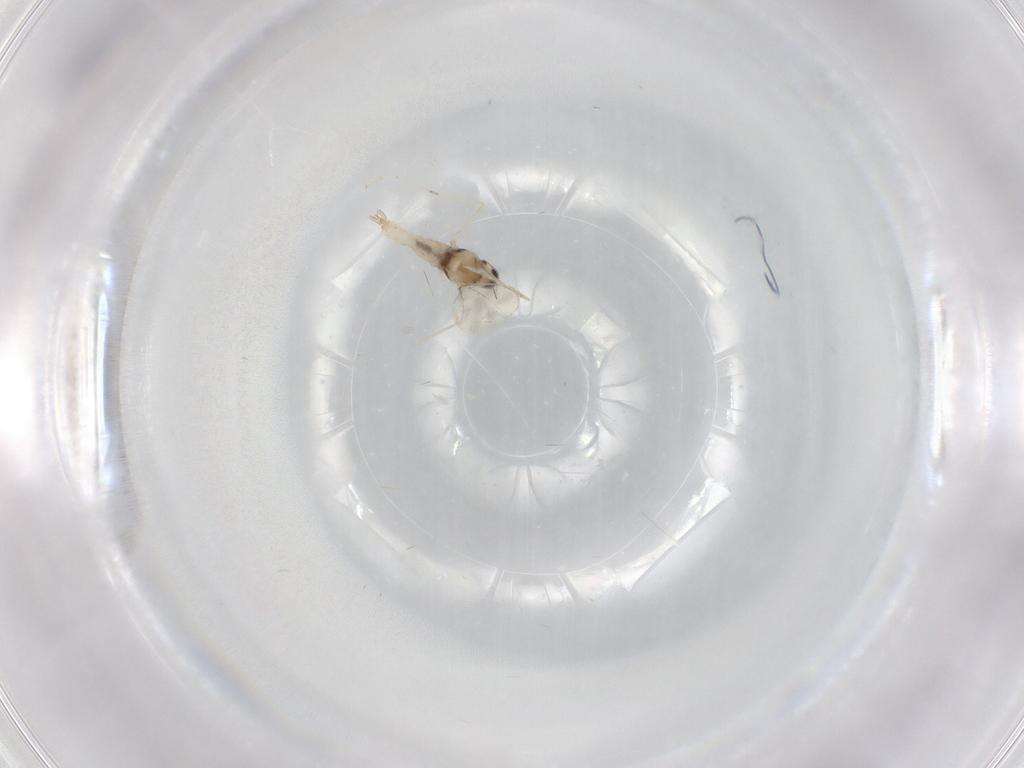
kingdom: Animalia
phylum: Arthropoda
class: Insecta
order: Diptera
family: Cecidomyiidae
